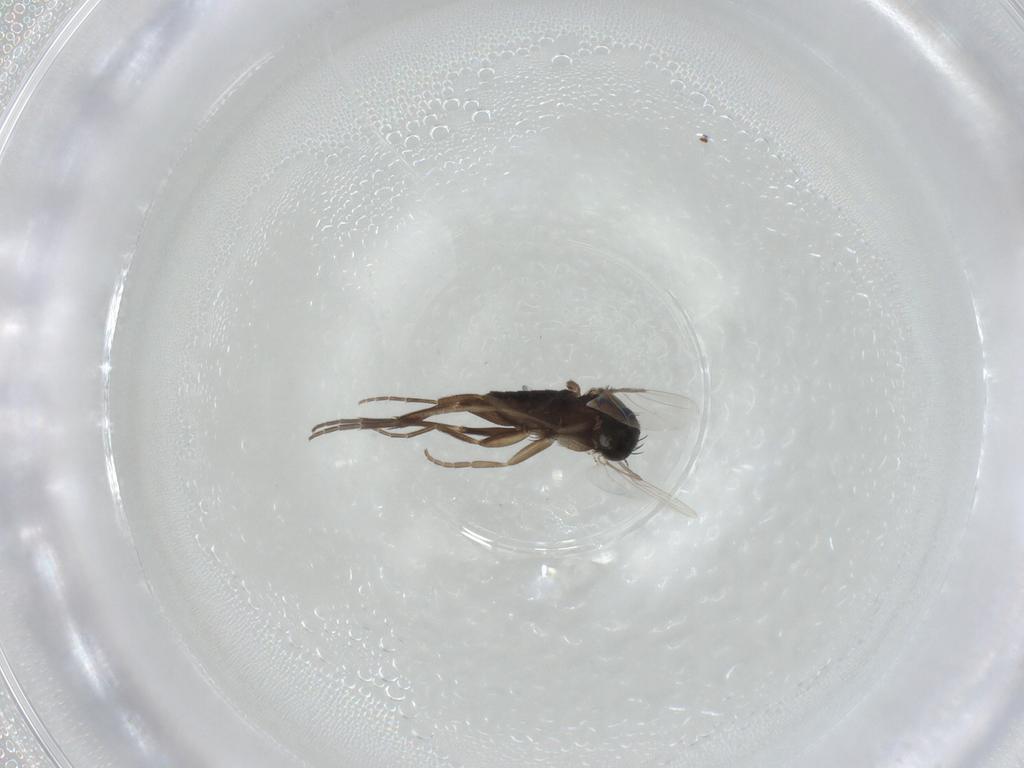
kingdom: Animalia
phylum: Arthropoda
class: Insecta
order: Diptera
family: Phoridae
